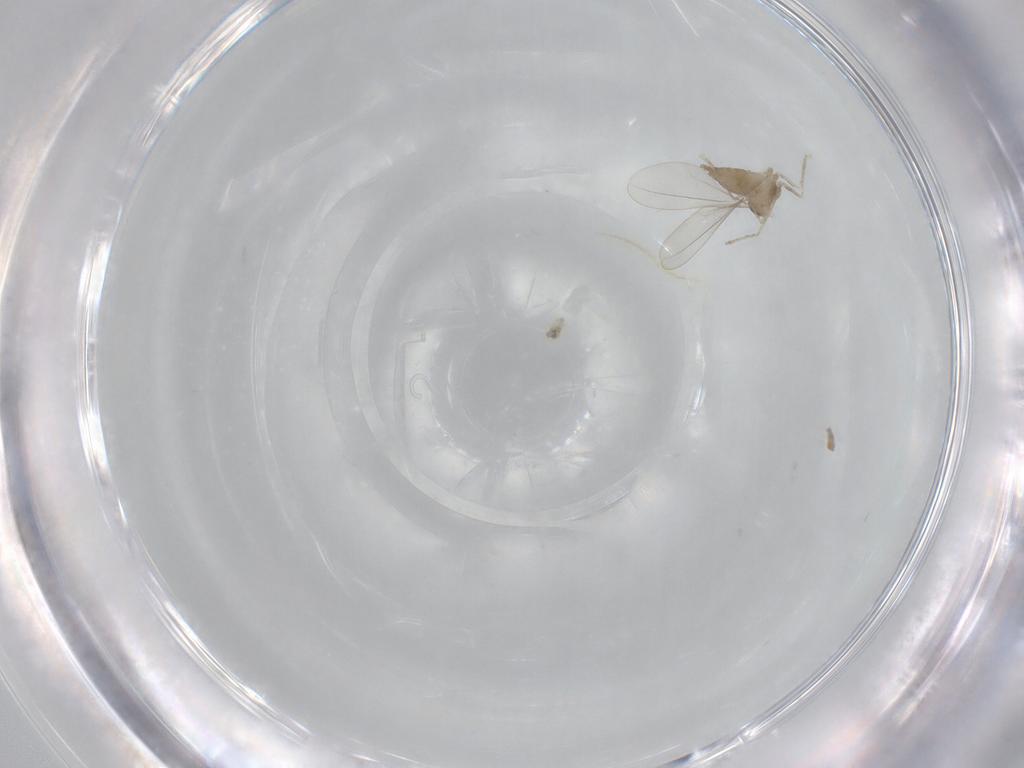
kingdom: Animalia
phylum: Arthropoda
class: Insecta
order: Diptera
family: Cecidomyiidae
